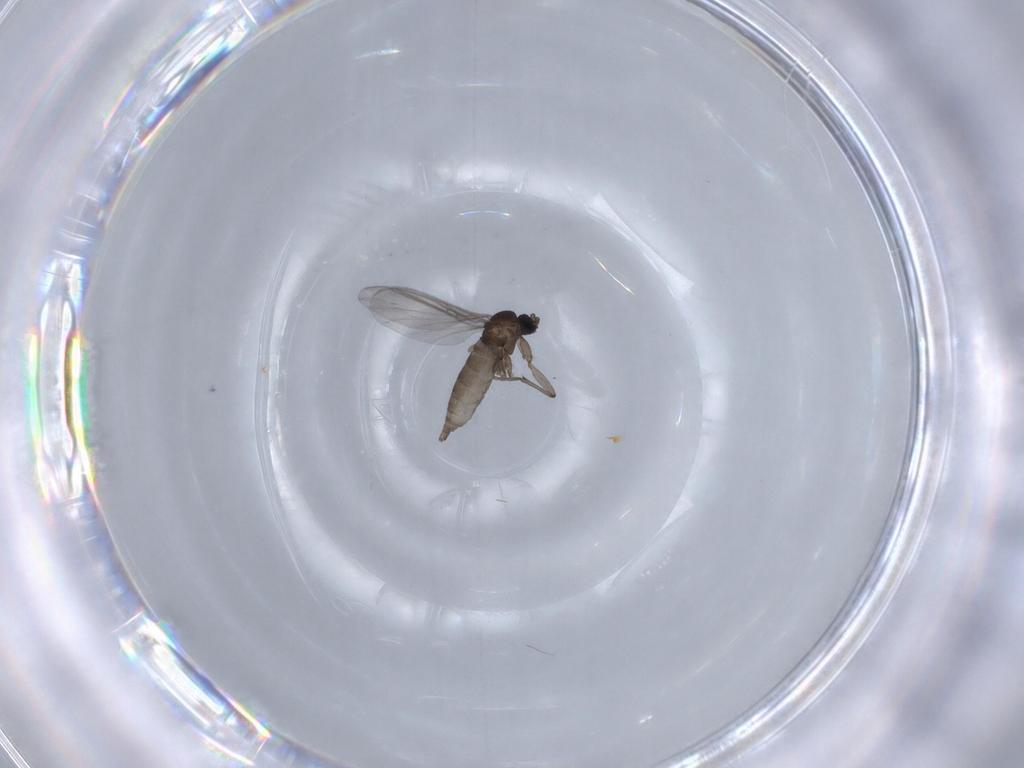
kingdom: Animalia
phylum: Arthropoda
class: Insecta
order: Diptera
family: Sciaridae
